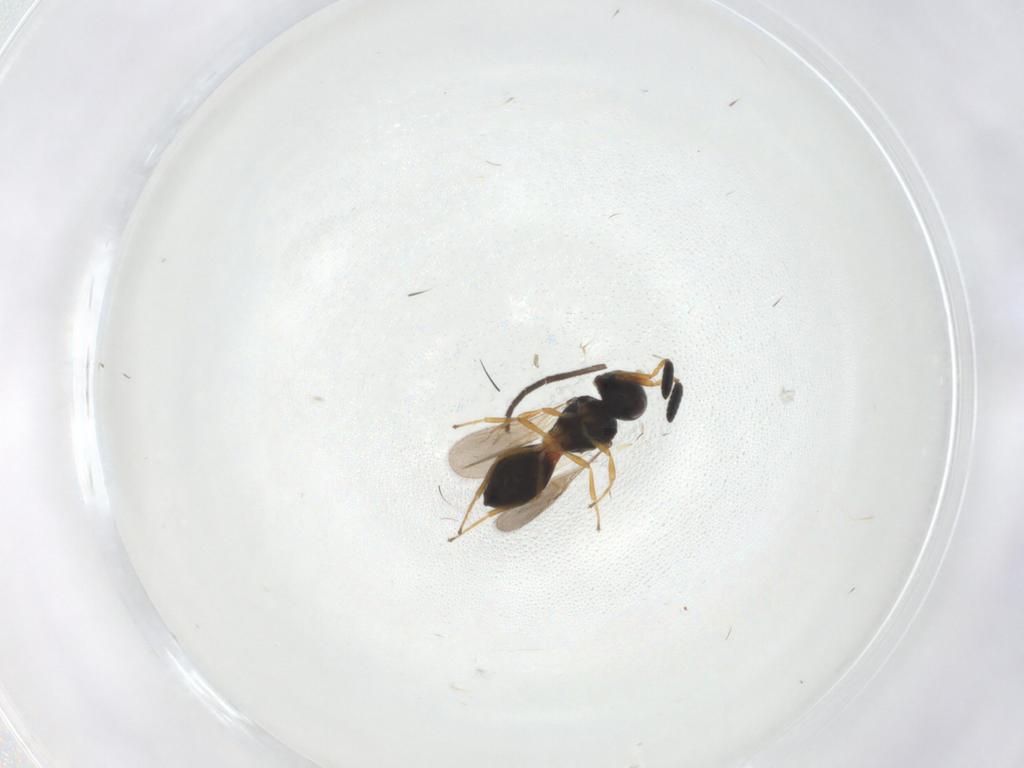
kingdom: Animalia
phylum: Arthropoda
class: Insecta
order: Hymenoptera
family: Scelionidae
